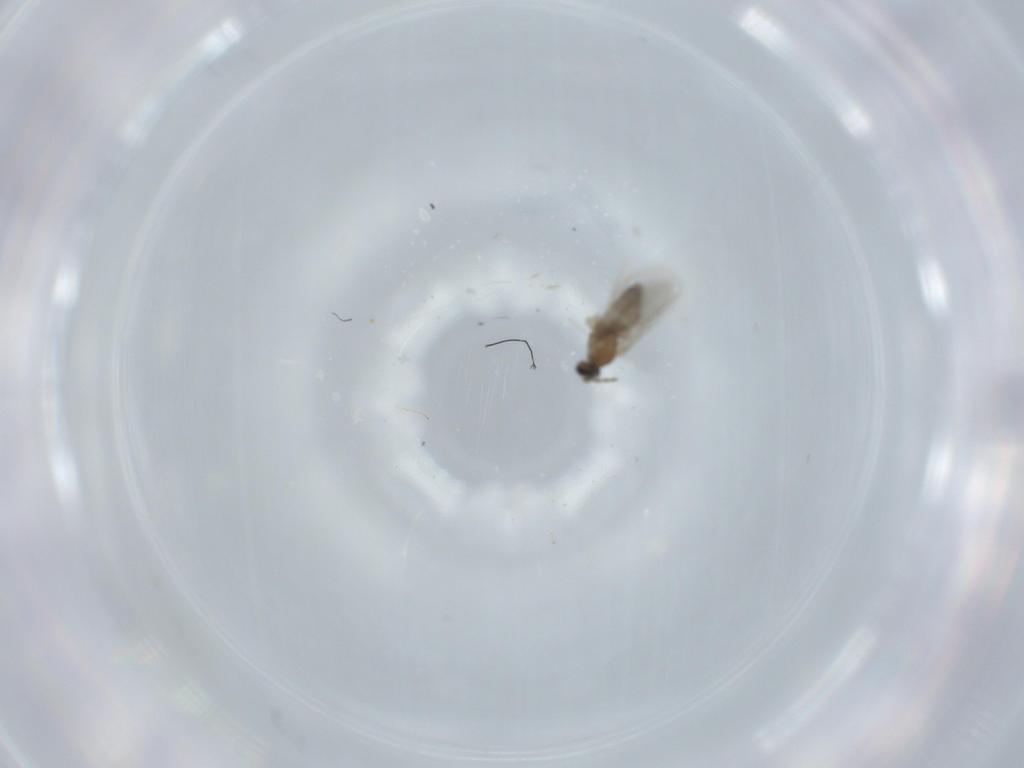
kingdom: Animalia
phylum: Arthropoda
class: Insecta
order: Diptera
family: Cecidomyiidae
